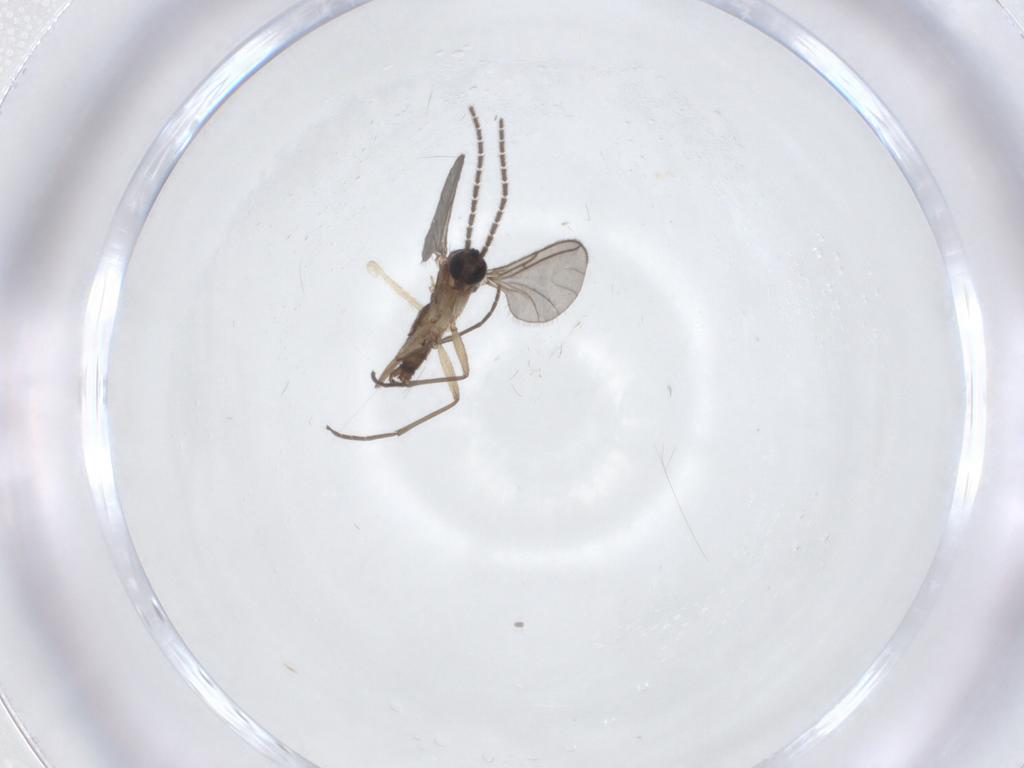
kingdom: Animalia
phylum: Arthropoda
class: Insecta
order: Diptera
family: Sciaridae
